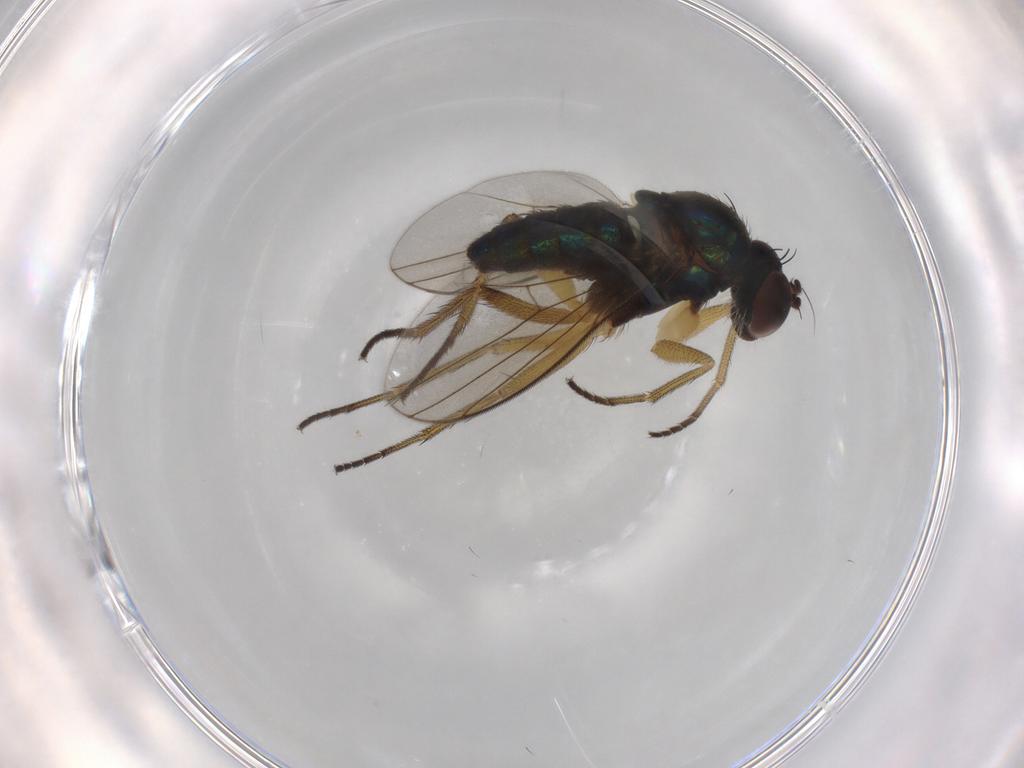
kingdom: Animalia
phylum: Arthropoda
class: Insecta
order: Diptera
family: Dolichopodidae
